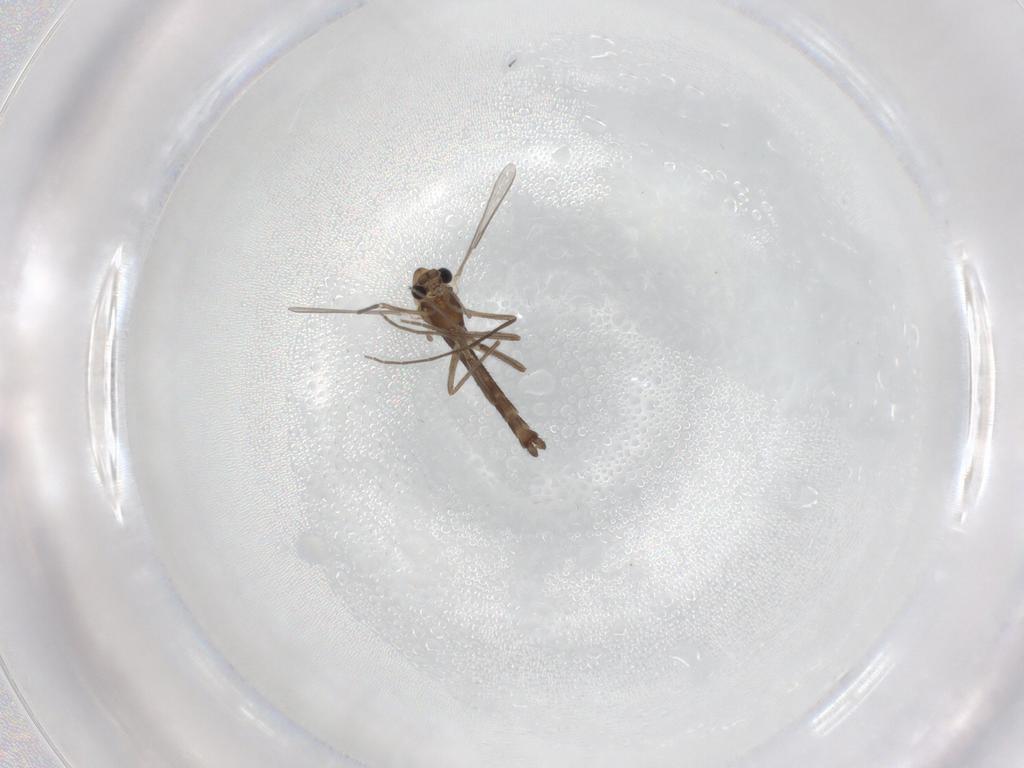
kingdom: Animalia
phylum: Arthropoda
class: Insecta
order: Diptera
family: Chironomidae
